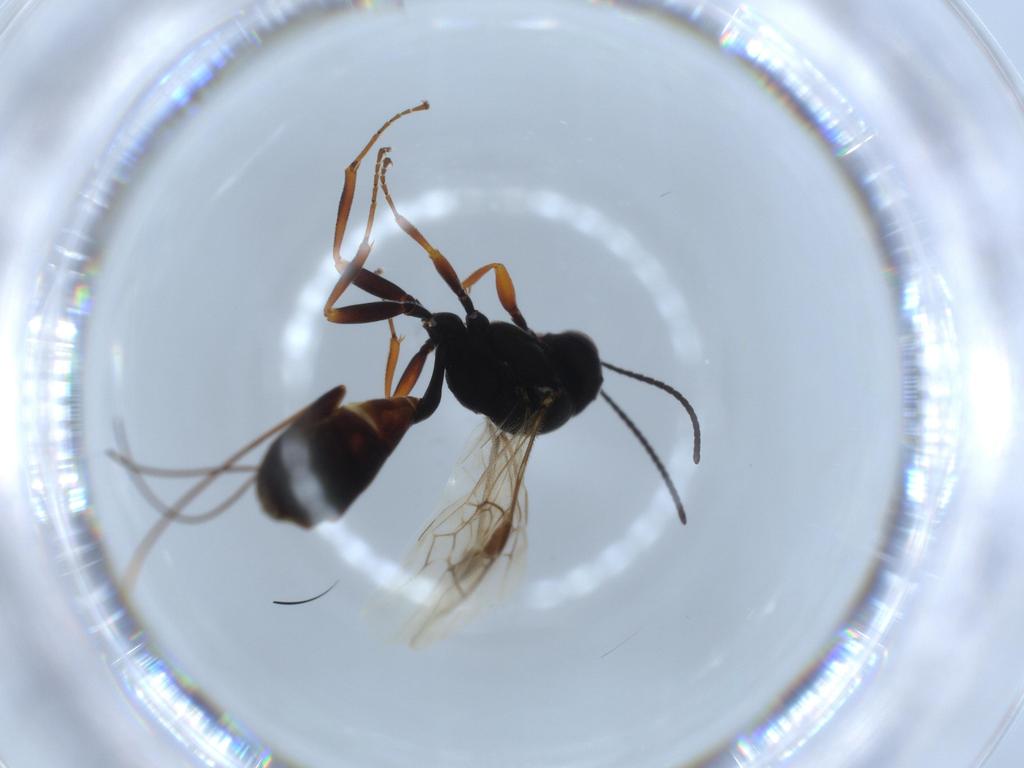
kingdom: Animalia
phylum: Arthropoda
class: Insecta
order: Hymenoptera
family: Ichneumonidae
